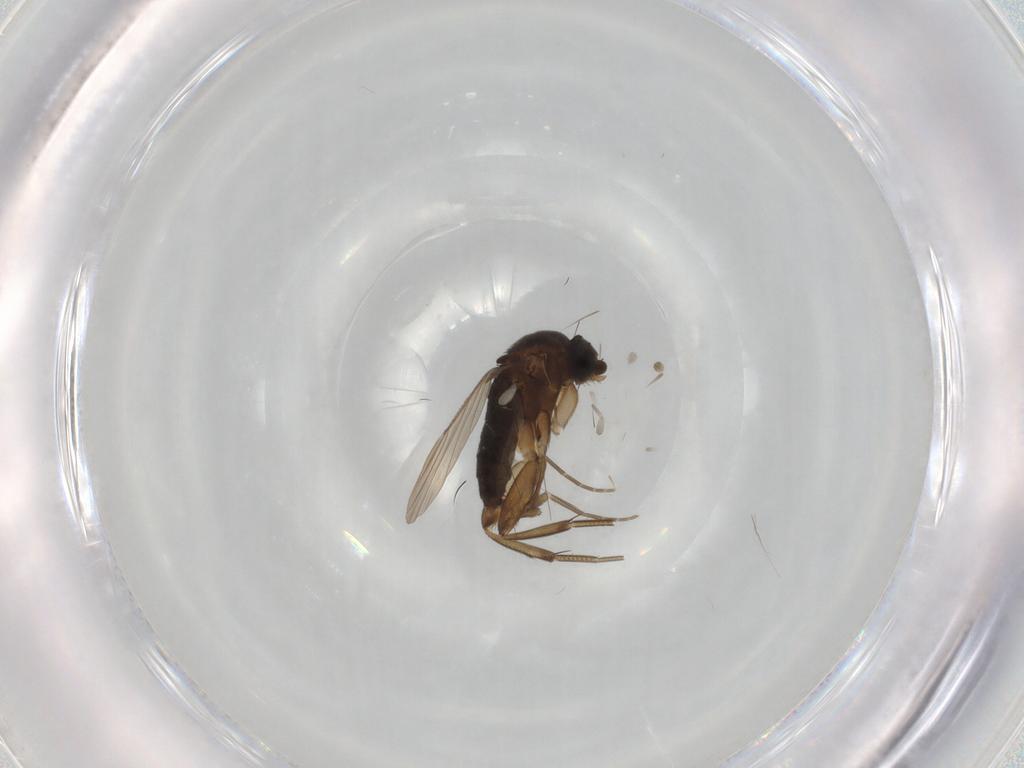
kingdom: Animalia
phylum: Arthropoda
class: Insecta
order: Diptera
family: Phoridae
